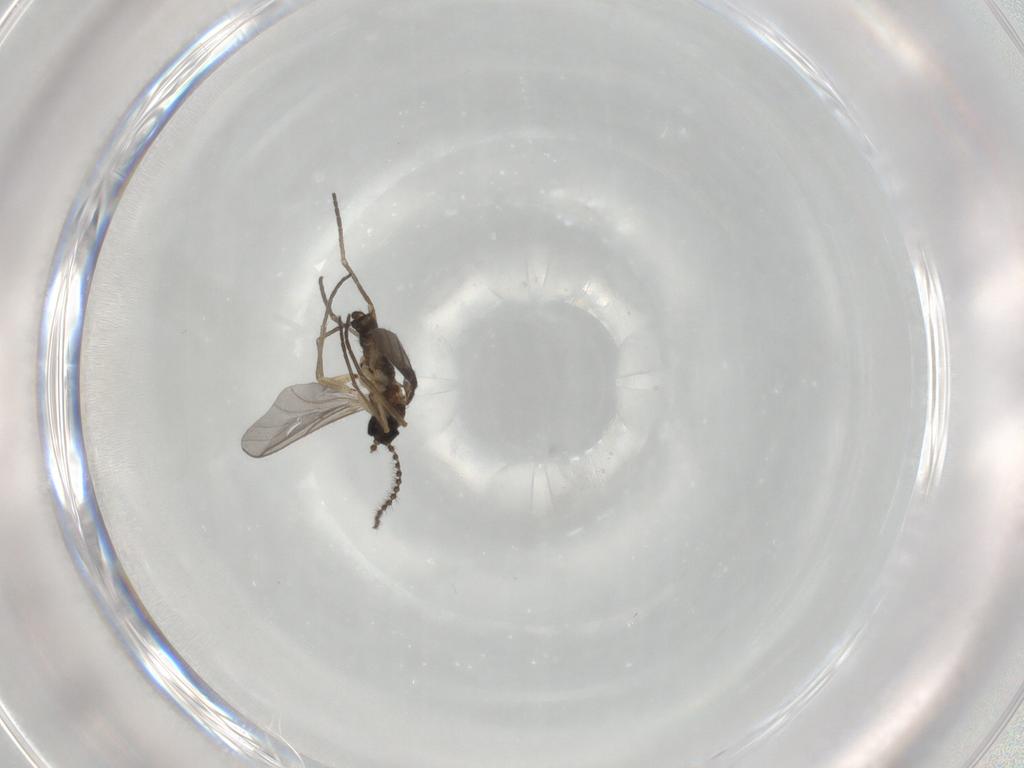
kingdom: Animalia
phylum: Arthropoda
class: Insecta
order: Diptera
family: Sciaridae
